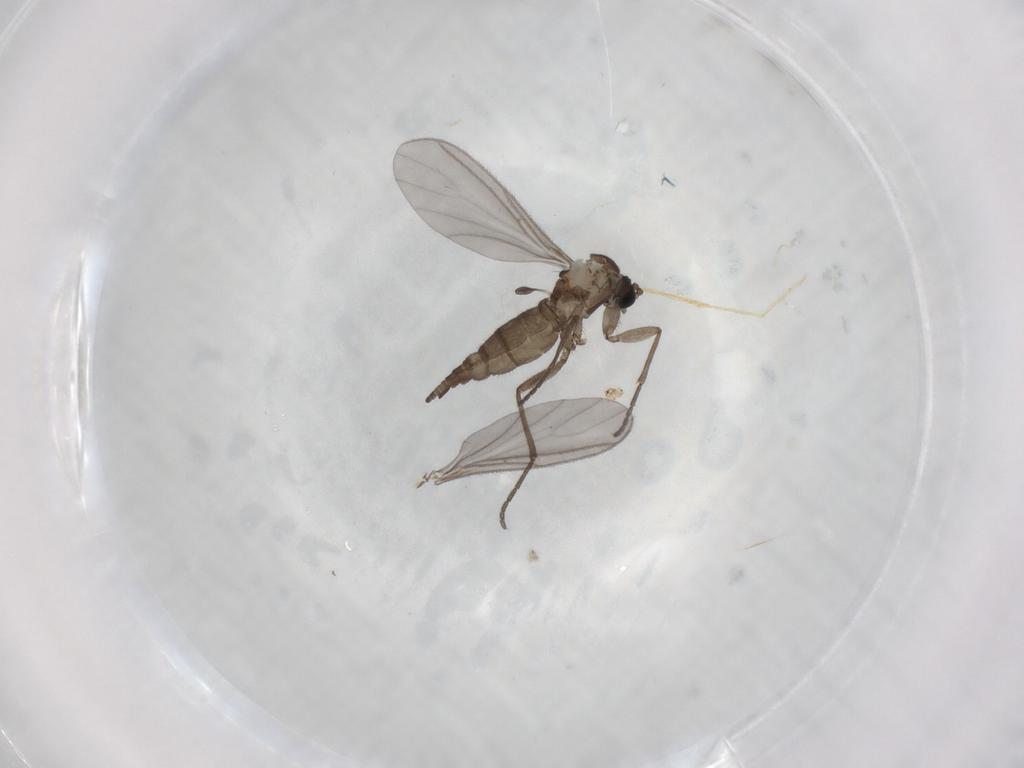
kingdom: Animalia
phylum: Arthropoda
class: Insecta
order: Diptera
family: Sciaridae
